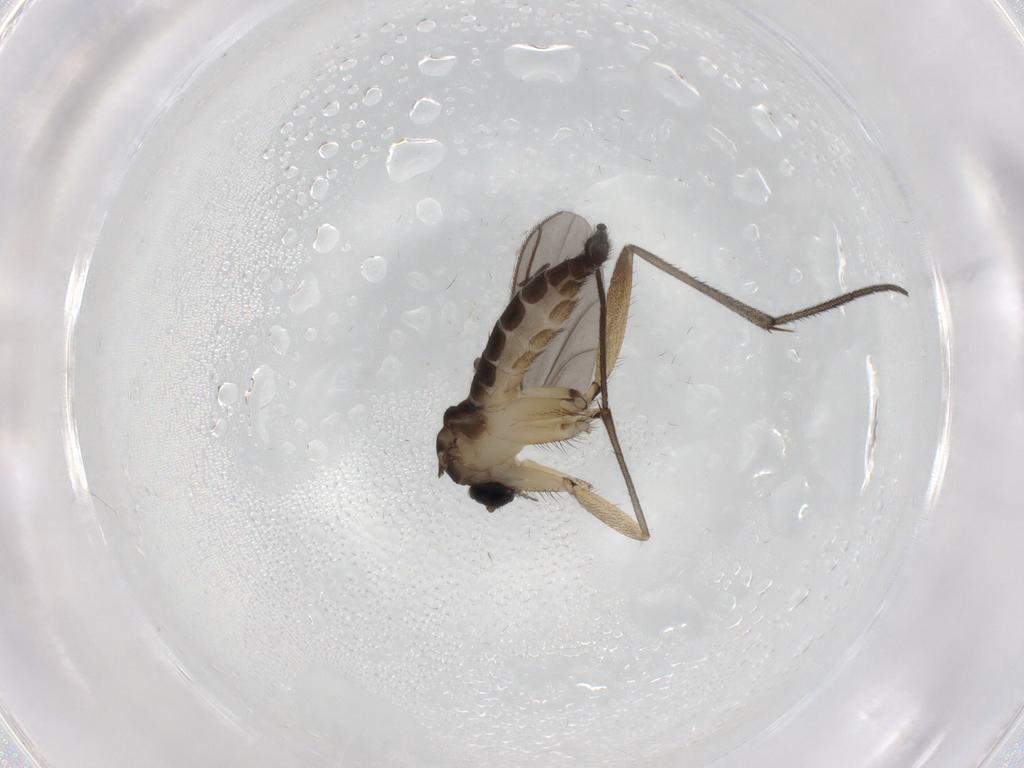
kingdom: Animalia
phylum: Arthropoda
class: Insecta
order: Diptera
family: Sciaridae
